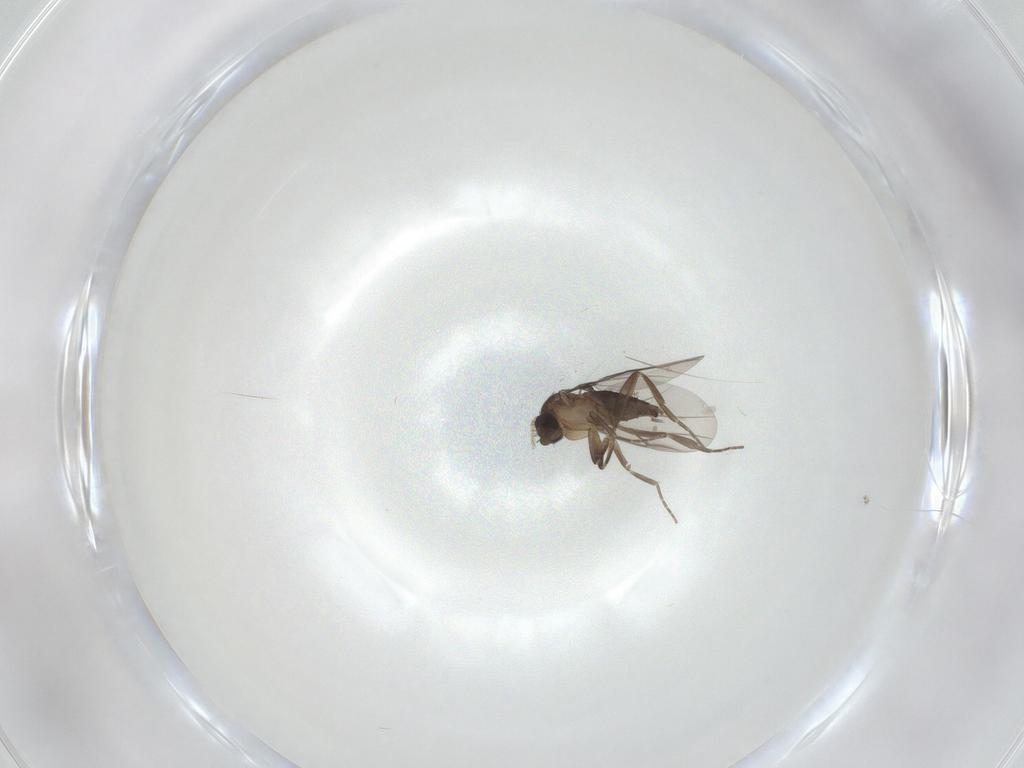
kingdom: Animalia
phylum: Arthropoda
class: Insecta
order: Diptera
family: Phoridae
